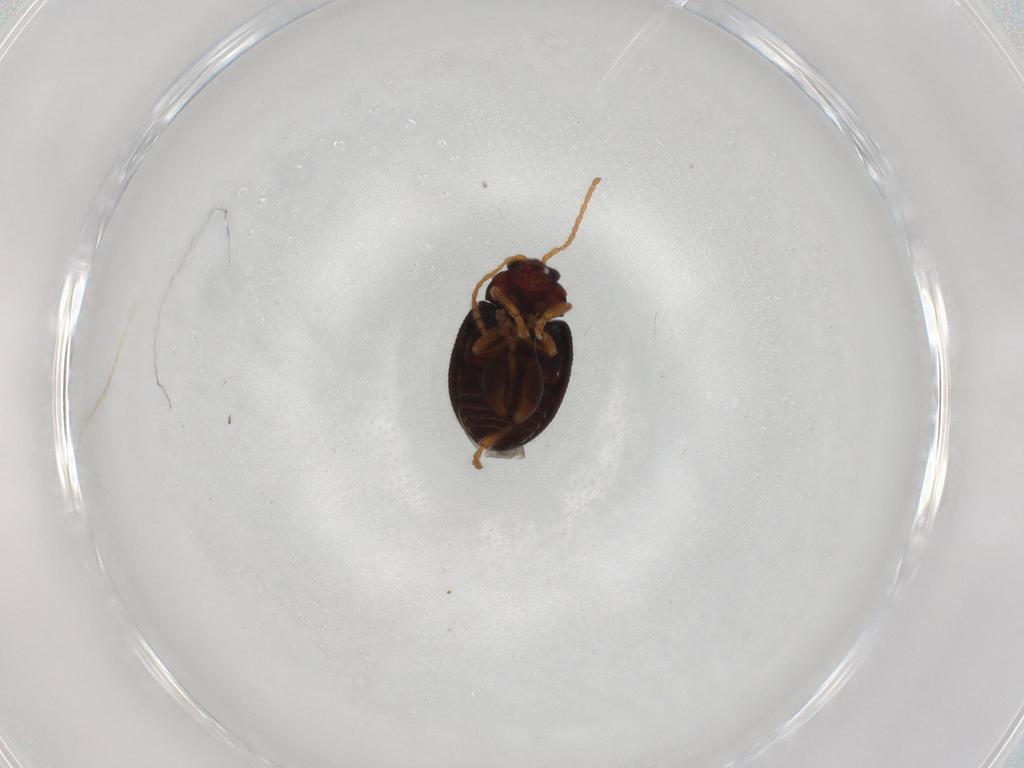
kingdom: Animalia
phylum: Arthropoda
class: Insecta
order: Coleoptera
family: Chrysomelidae
